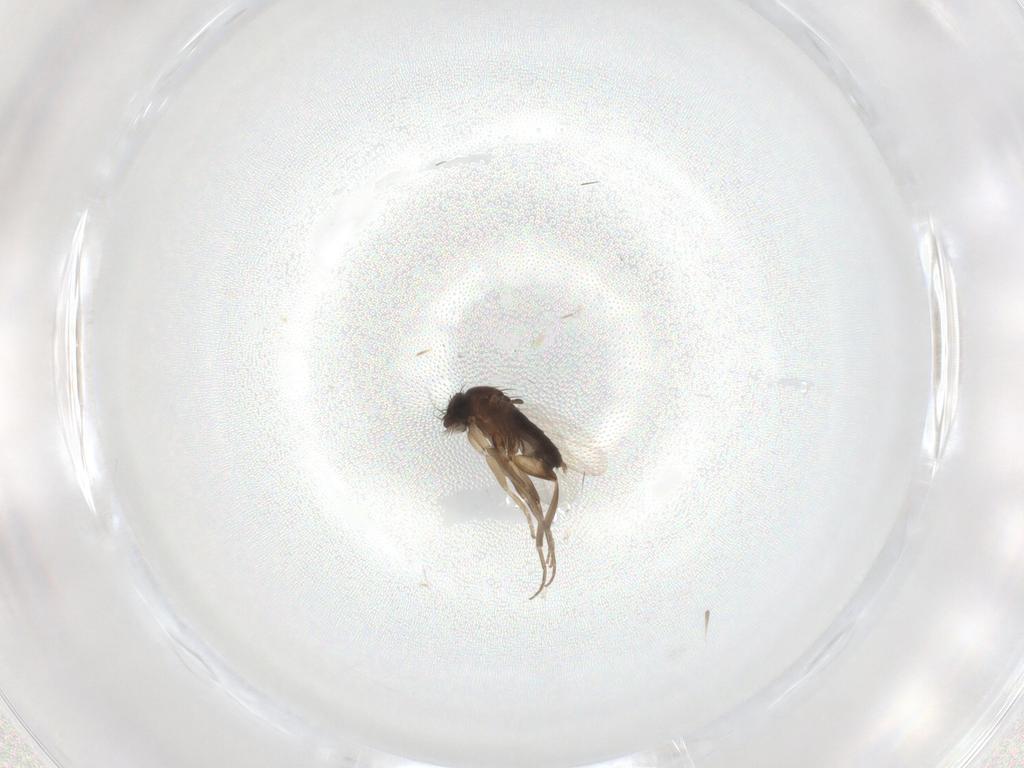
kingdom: Animalia
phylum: Arthropoda
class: Insecta
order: Diptera
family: Phoridae
